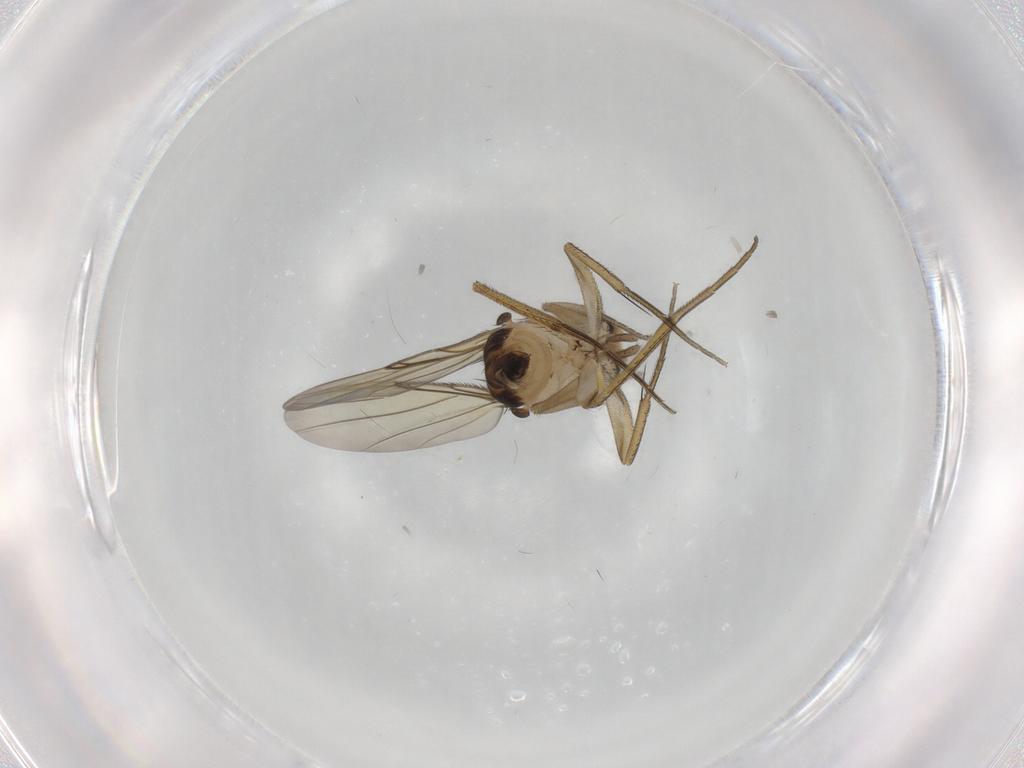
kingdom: Animalia
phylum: Arthropoda
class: Insecta
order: Diptera
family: Phoridae
